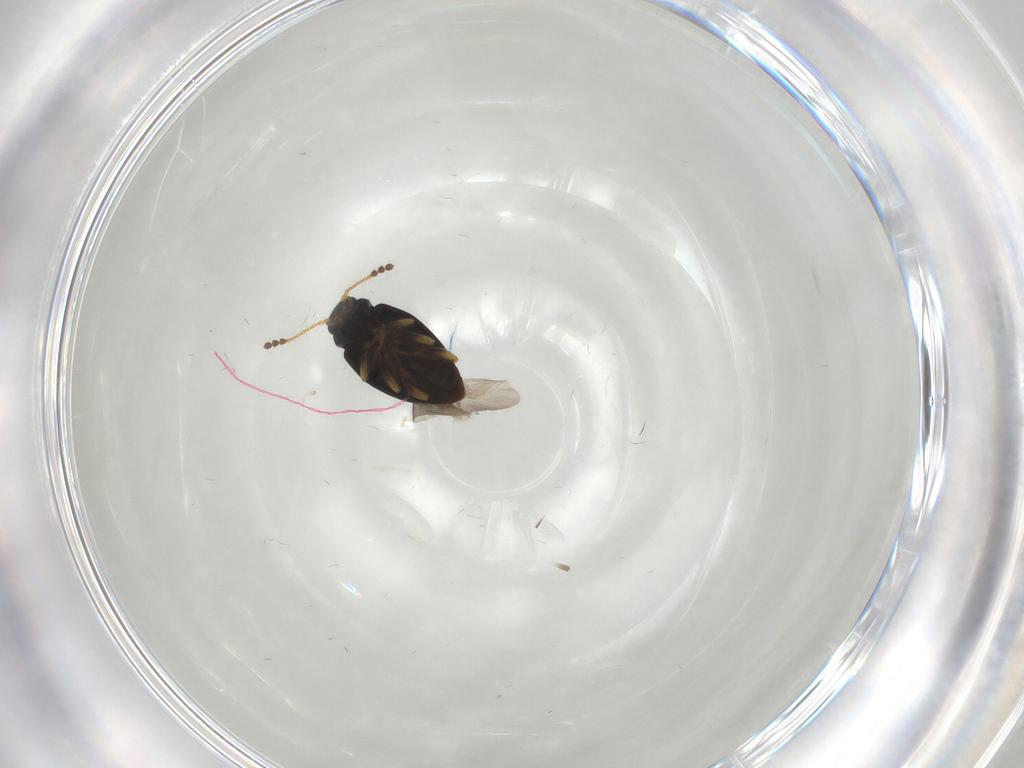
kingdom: Animalia
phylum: Arthropoda
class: Insecta
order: Coleoptera
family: Erotylidae
